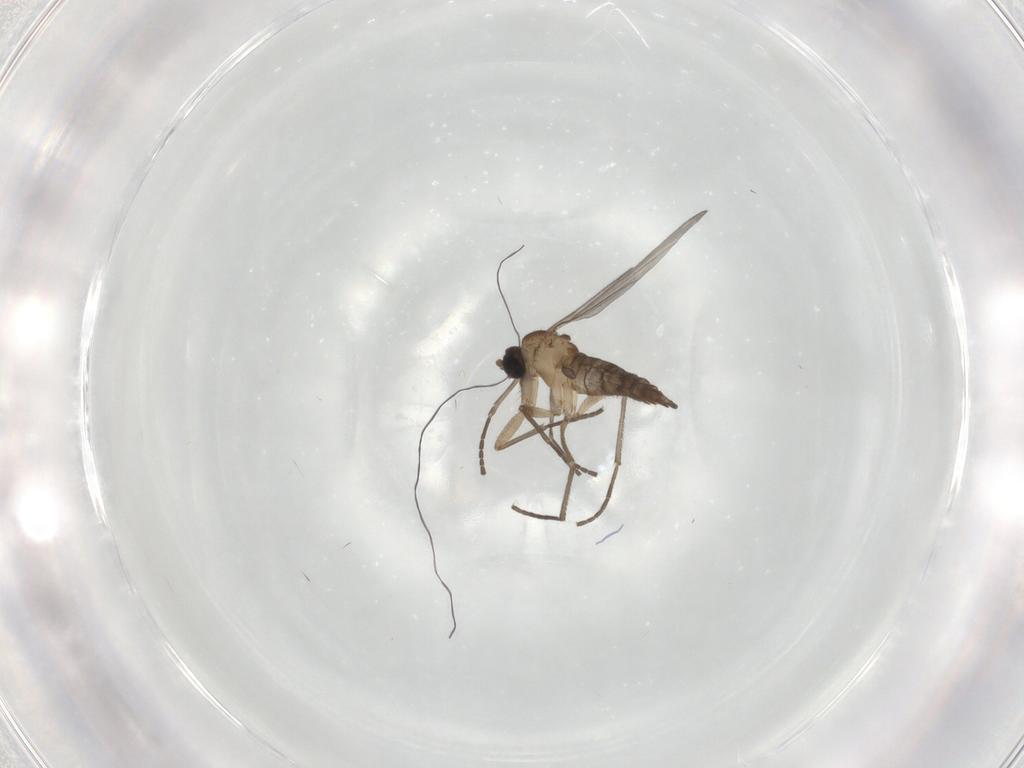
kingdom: Animalia
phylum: Arthropoda
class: Insecta
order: Diptera
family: Sciaridae
